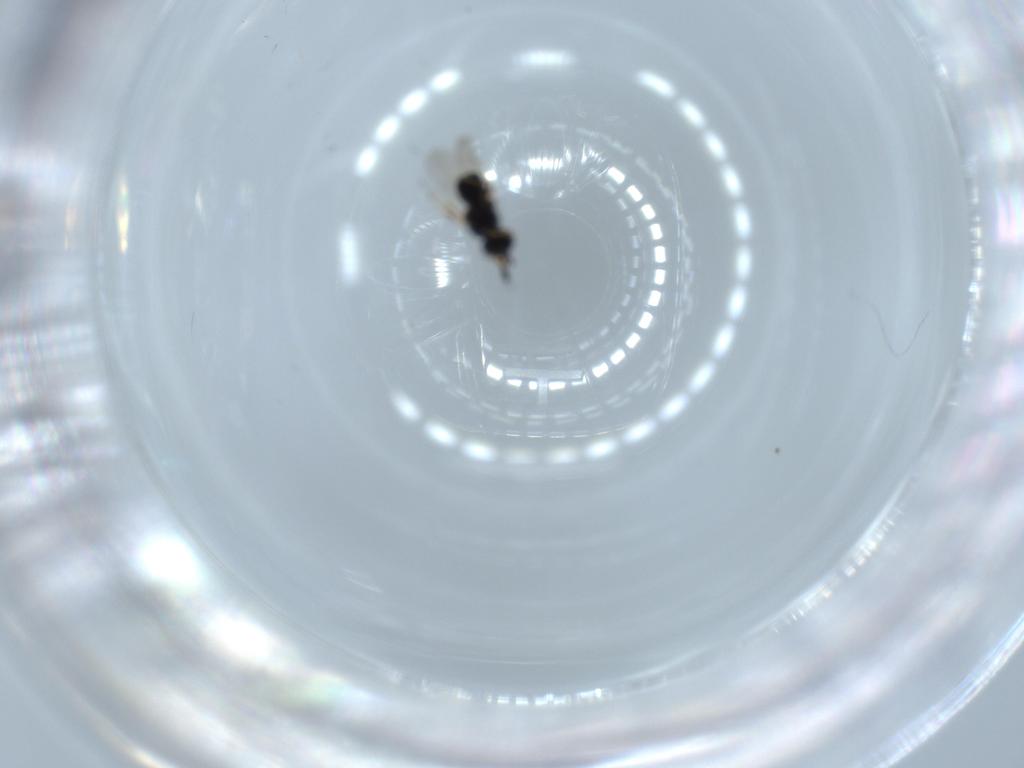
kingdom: Animalia
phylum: Arthropoda
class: Insecta
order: Hymenoptera
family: Scelionidae
